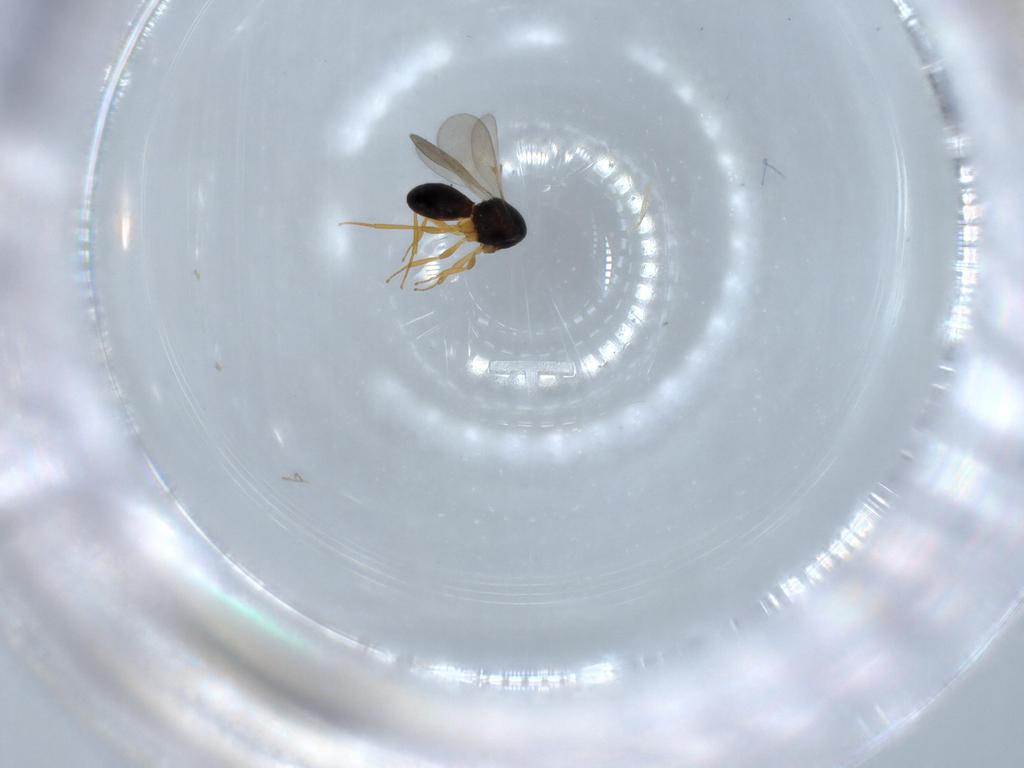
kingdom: Animalia
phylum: Arthropoda
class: Insecta
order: Hymenoptera
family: Scelionidae
